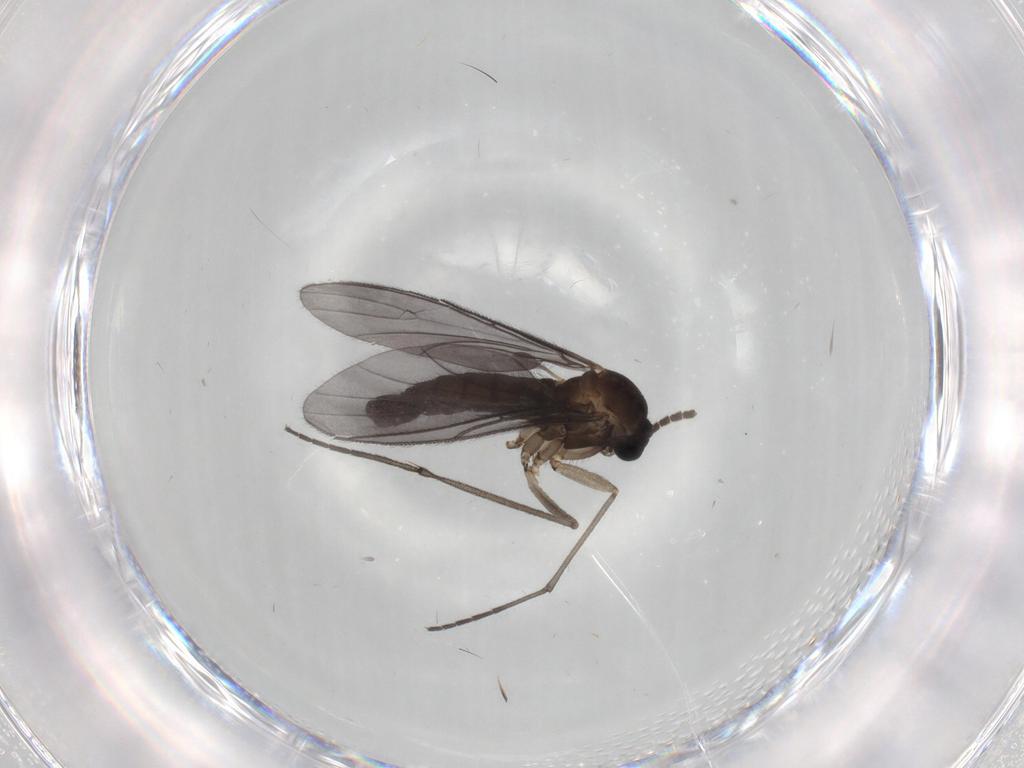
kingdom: Animalia
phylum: Arthropoda
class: Insecta
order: Diptera
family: Sciaridae
